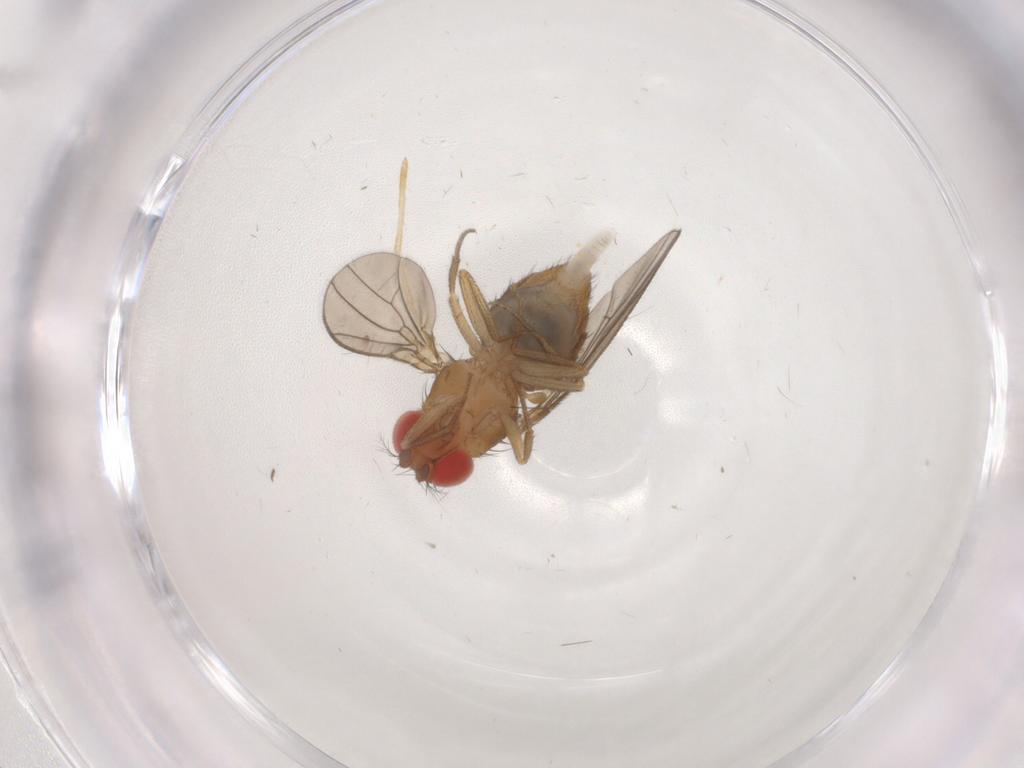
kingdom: Animalia
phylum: Arthropoda
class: Insecta
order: Diptera
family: Drosophilidae
